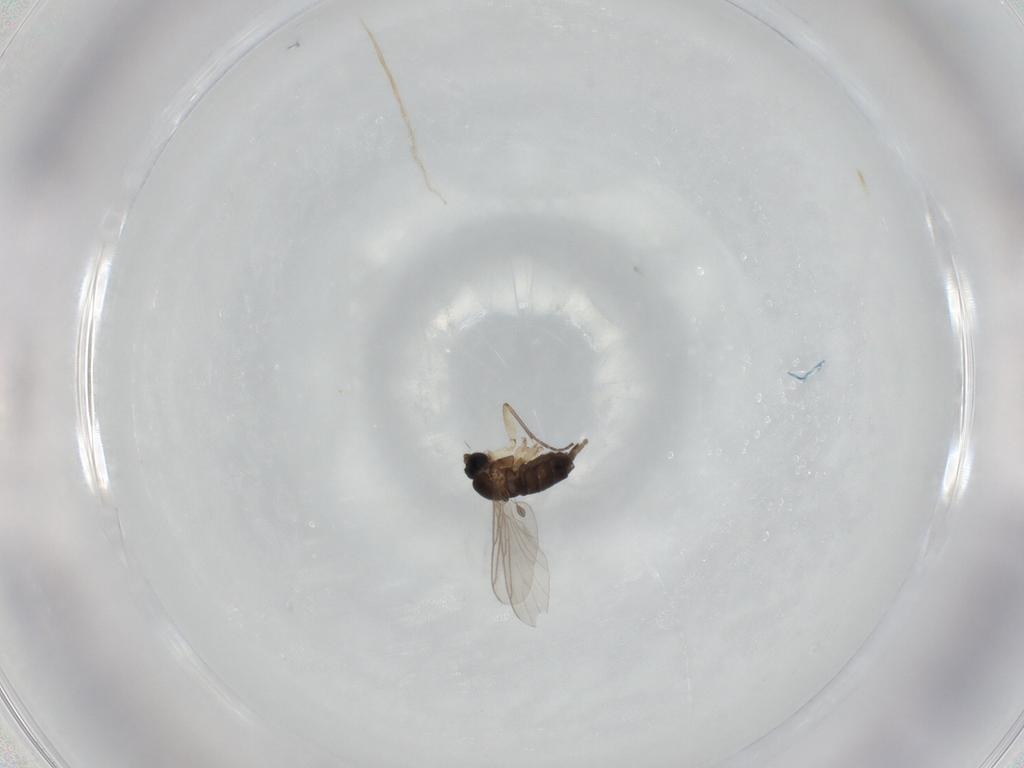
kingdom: Animalia
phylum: Arthropoda
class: Insecta
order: Diptera
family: Sciaridae
